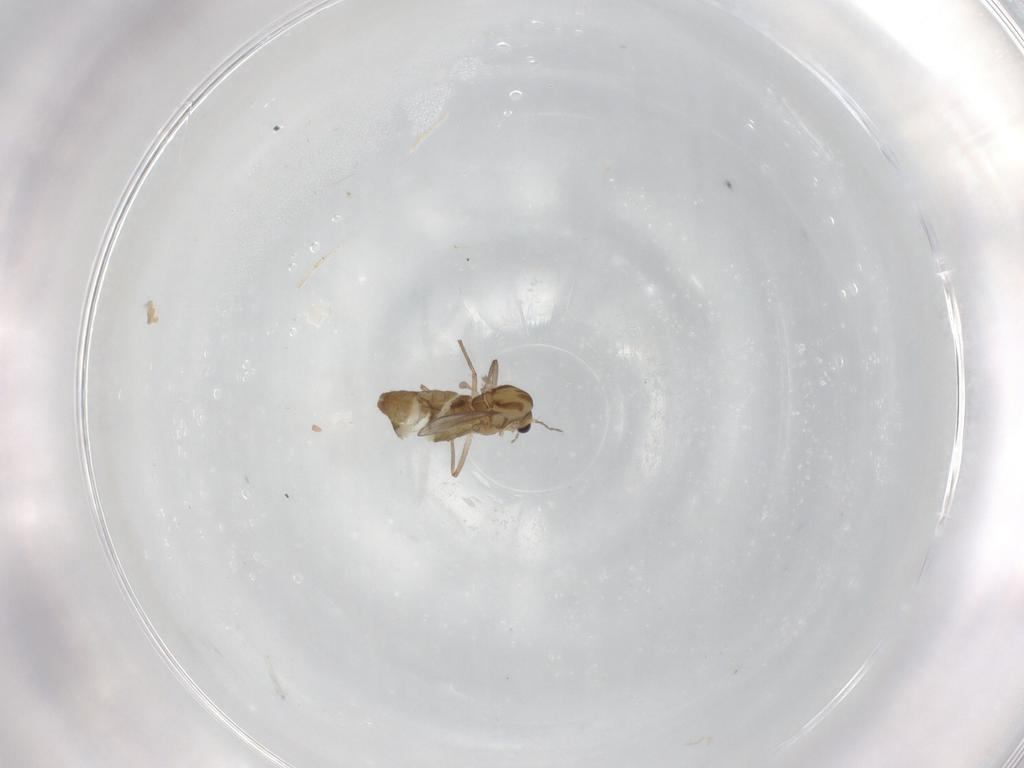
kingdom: Animalia
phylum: Arthropoda
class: Insecta
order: Diptera
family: Chironomidae
